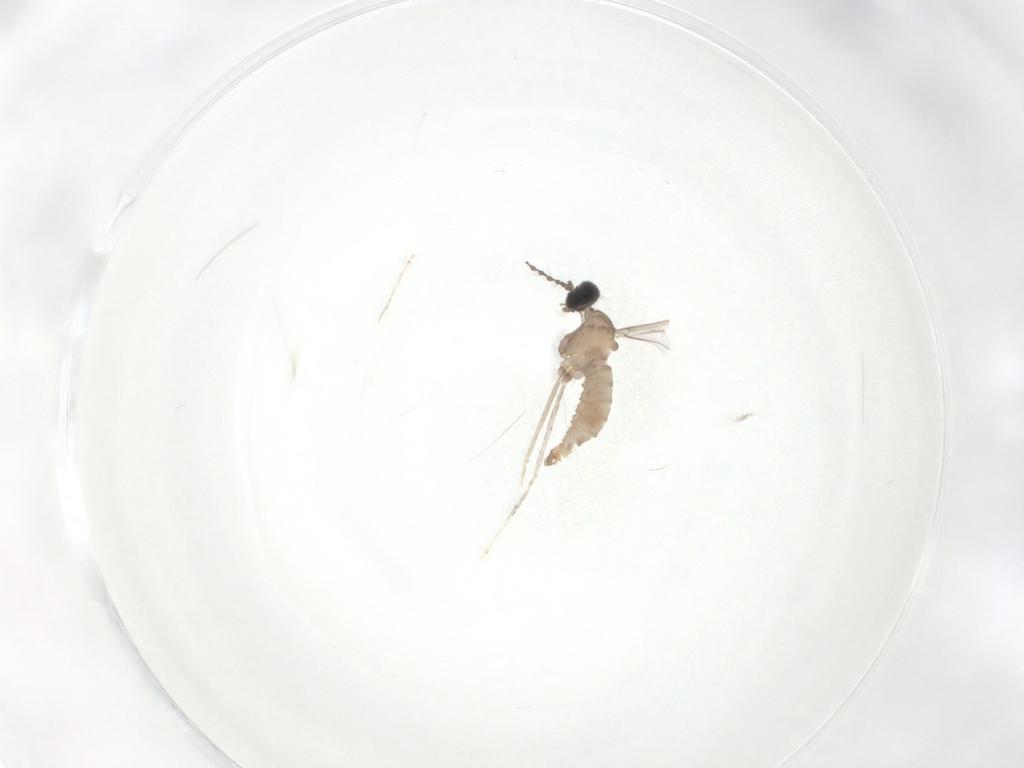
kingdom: Animalia
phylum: Arthropoda
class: Insecta
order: Diptera
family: Cecidomyiidae
